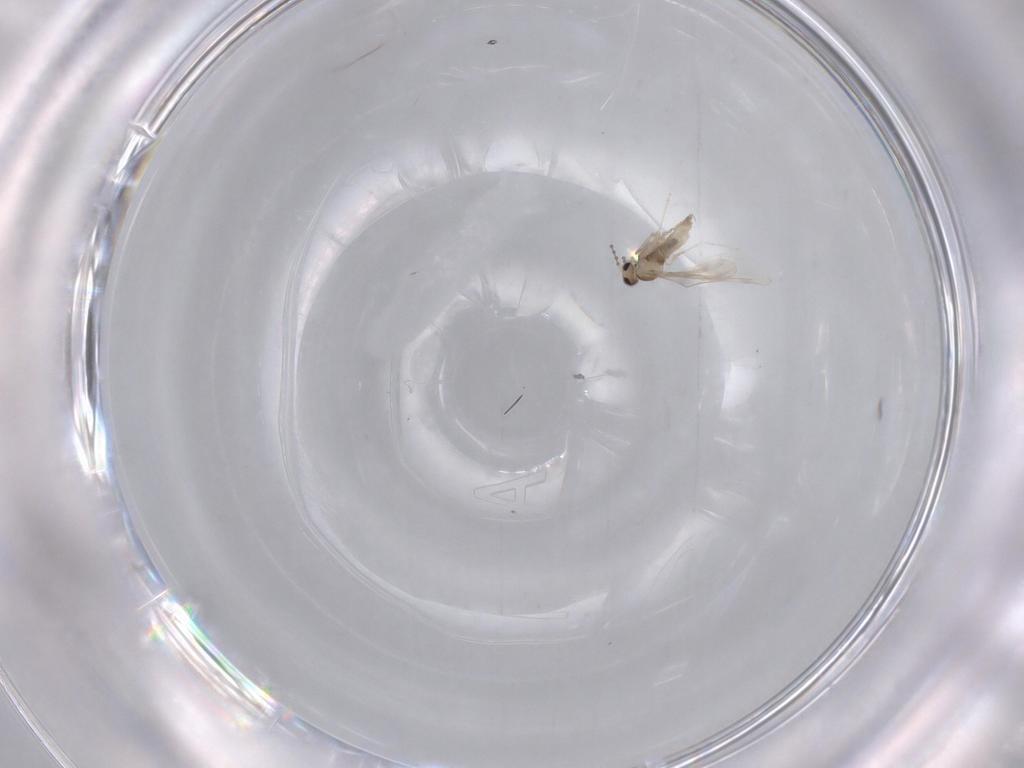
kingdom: Animalia
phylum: Arthropoda
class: Insecta
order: Diptera
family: Cecidomyiidae
